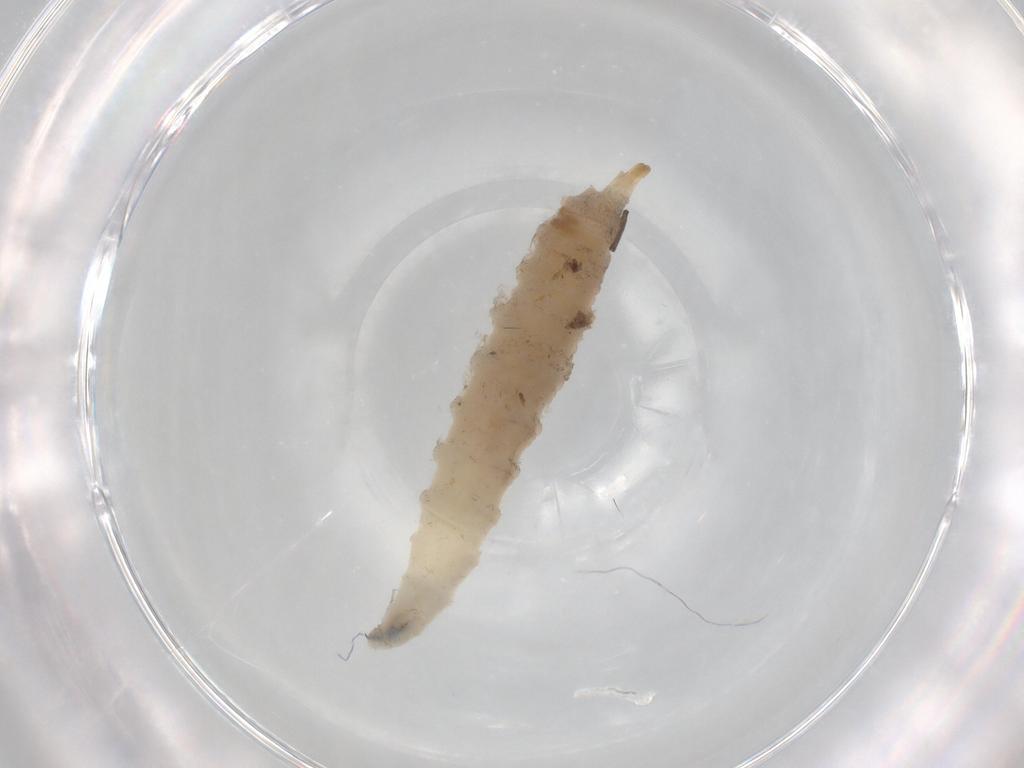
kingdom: Animalia
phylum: Arthropoda
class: Insecta
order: Diptera
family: Drosophilidae
